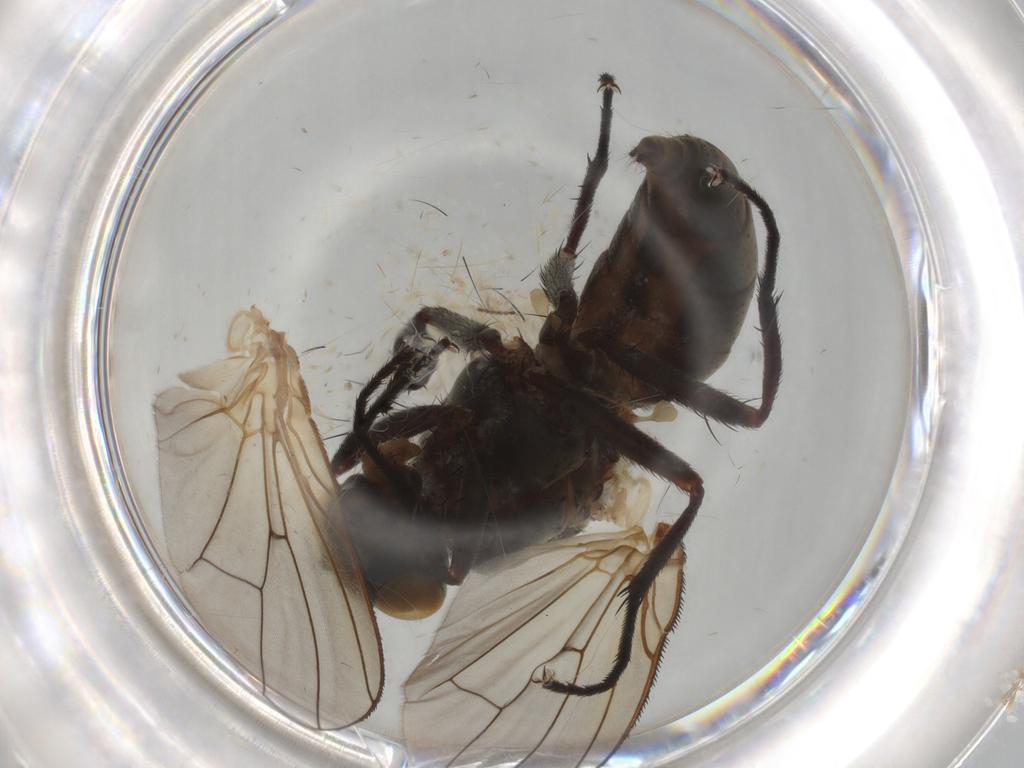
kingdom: Animalia
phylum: Arthropoda
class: Insecta
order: Diptera
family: Anthomyiidae
